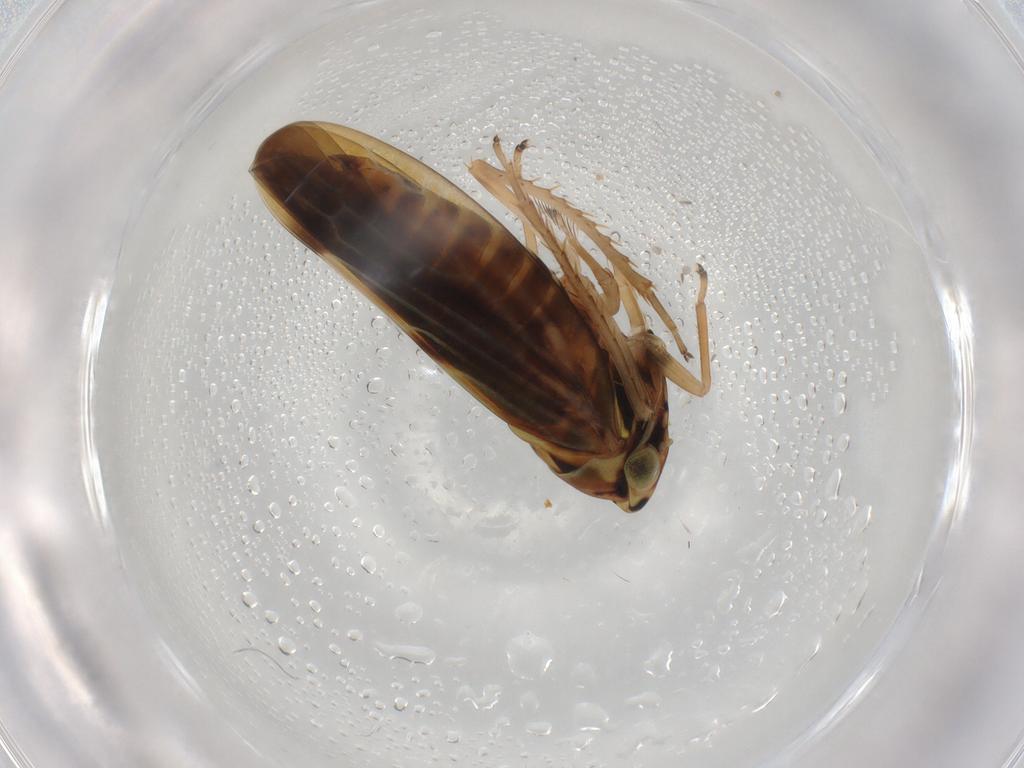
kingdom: Animalia
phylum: Arthropoda
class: Insecta
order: Hemiptera
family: Cicadellidae
